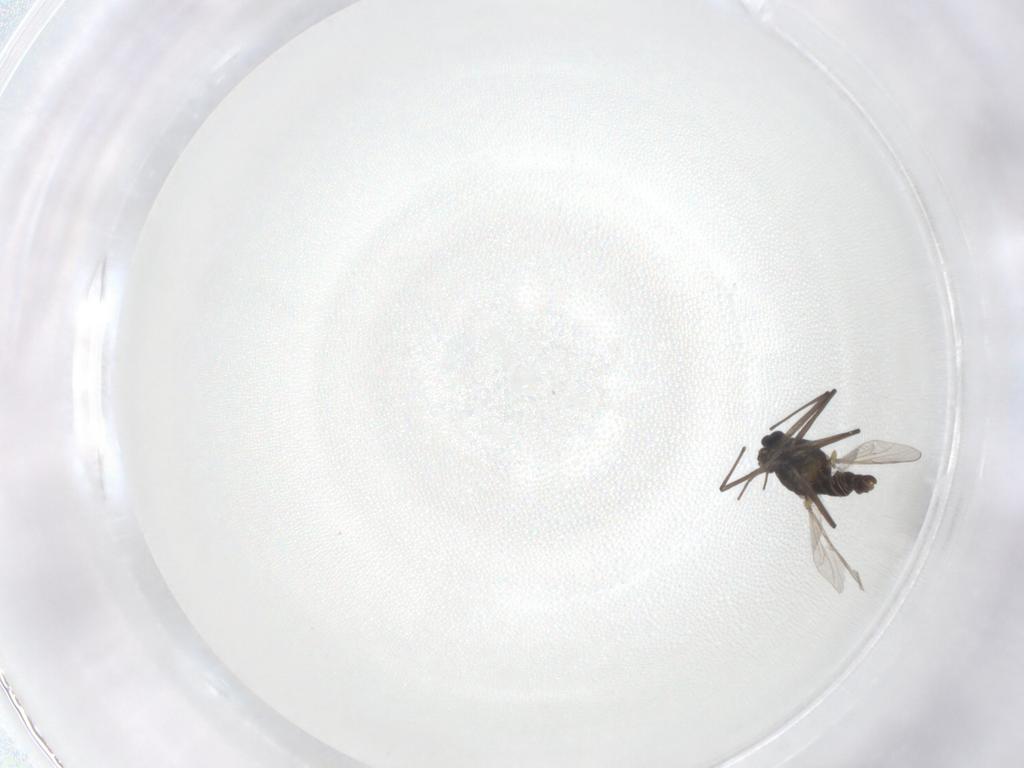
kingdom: Animalia
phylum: Arthropoda
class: Insecta
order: Diptera
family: Chironomidae
